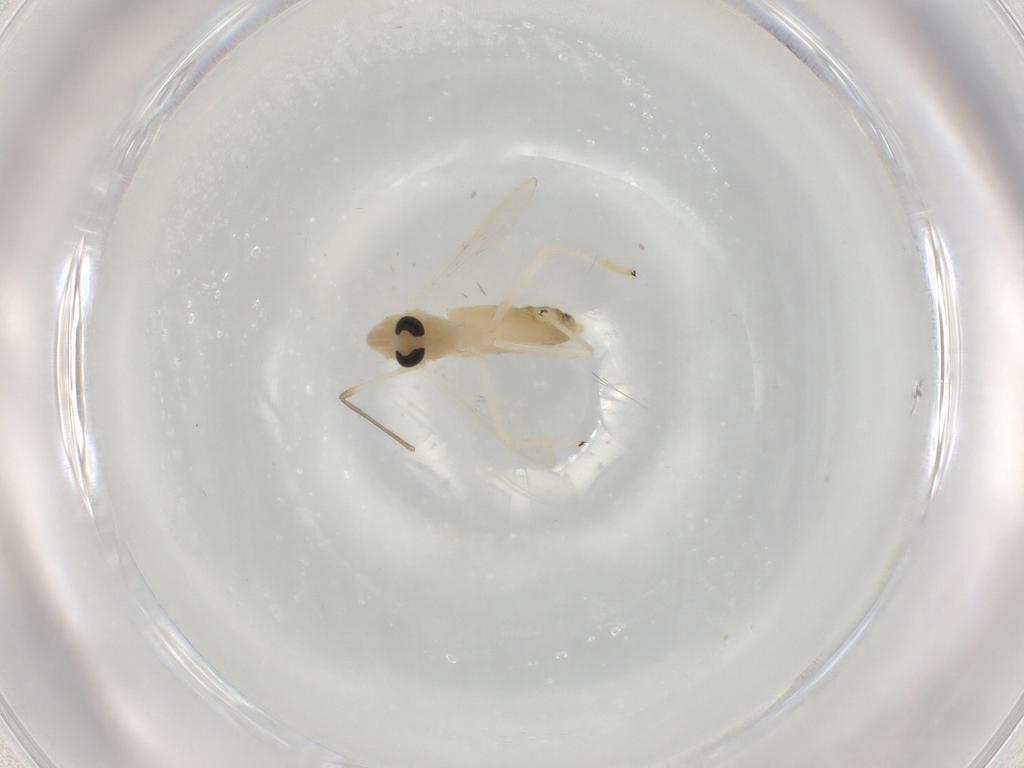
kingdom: Animalia
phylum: Arthropoda
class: Insecta
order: Diptera
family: Chironomidae
